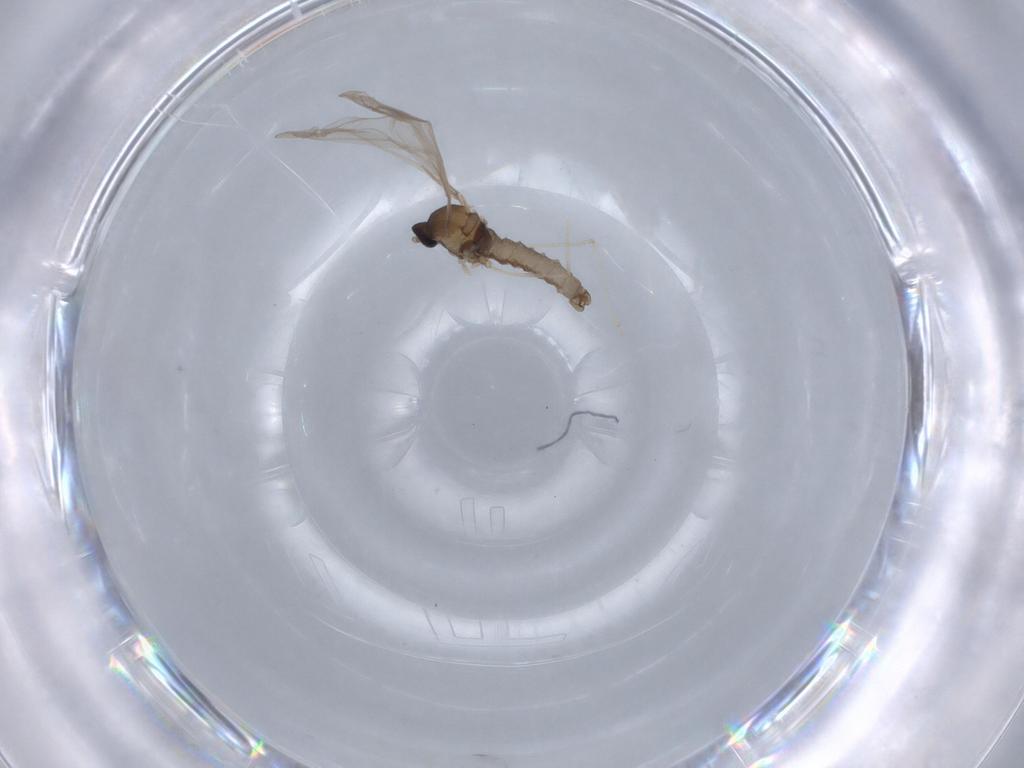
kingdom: Animalia
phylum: Arthropoda
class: Insecta
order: Diptera
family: Cecidomyiidae
